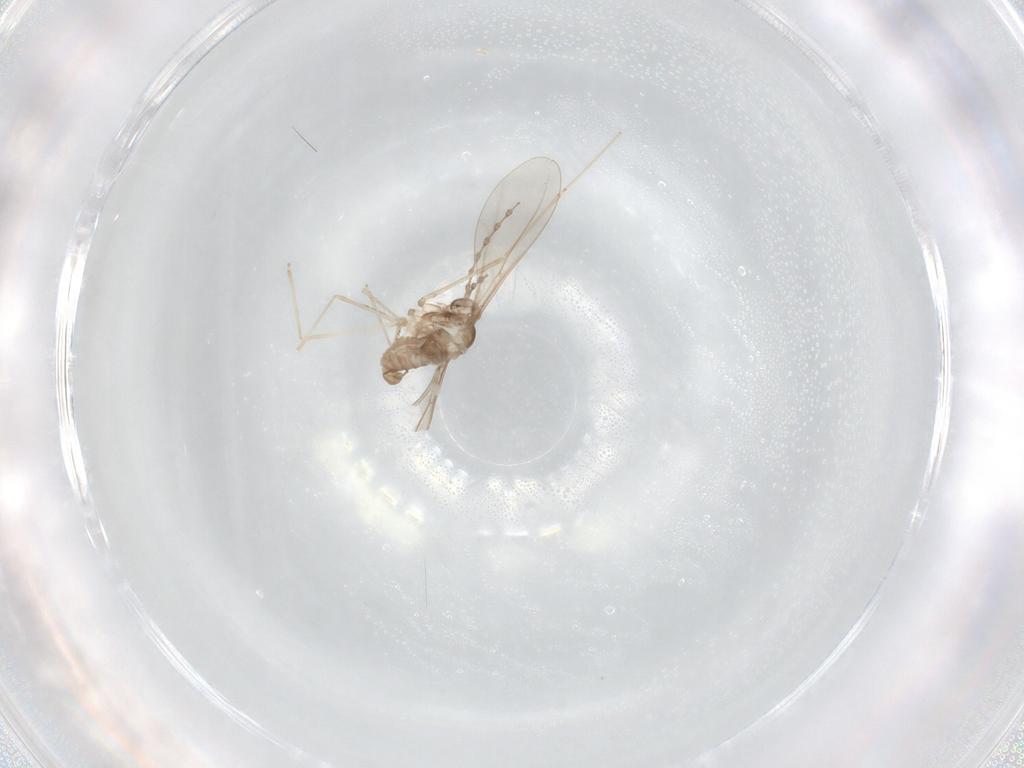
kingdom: Animalia
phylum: Arthropoda
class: Insecta
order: Diptera
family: Cecidomyiidae
